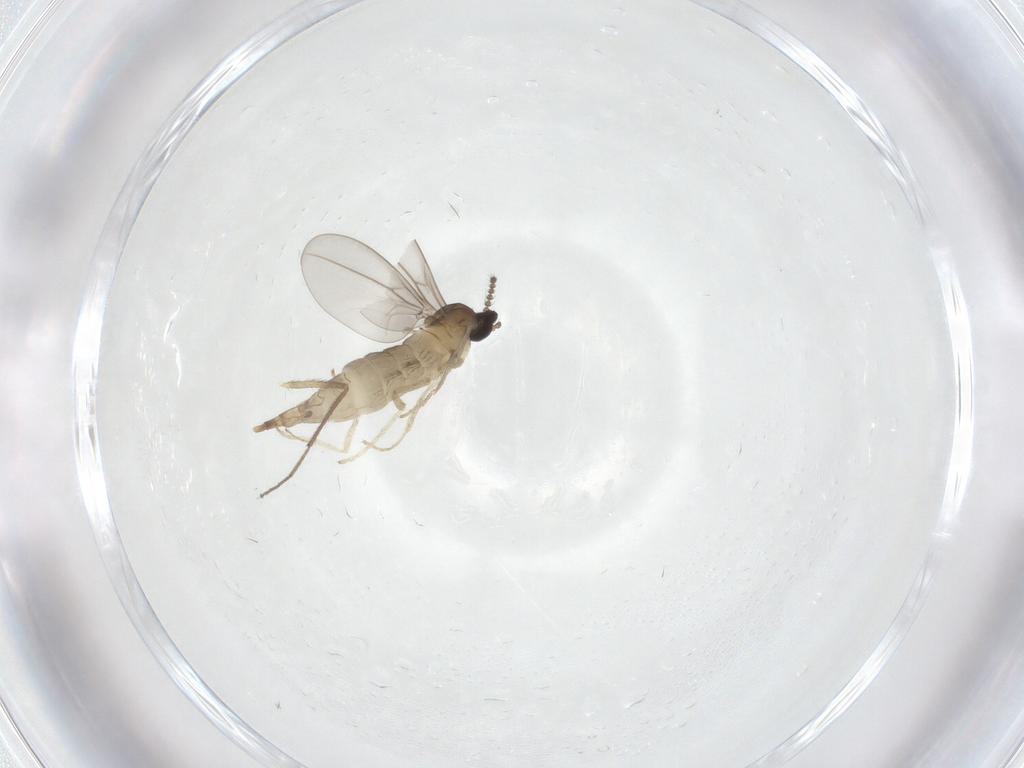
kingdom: Animalia
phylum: Arthropoda
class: Insecta
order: Diptera
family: Cecidomyiidae
